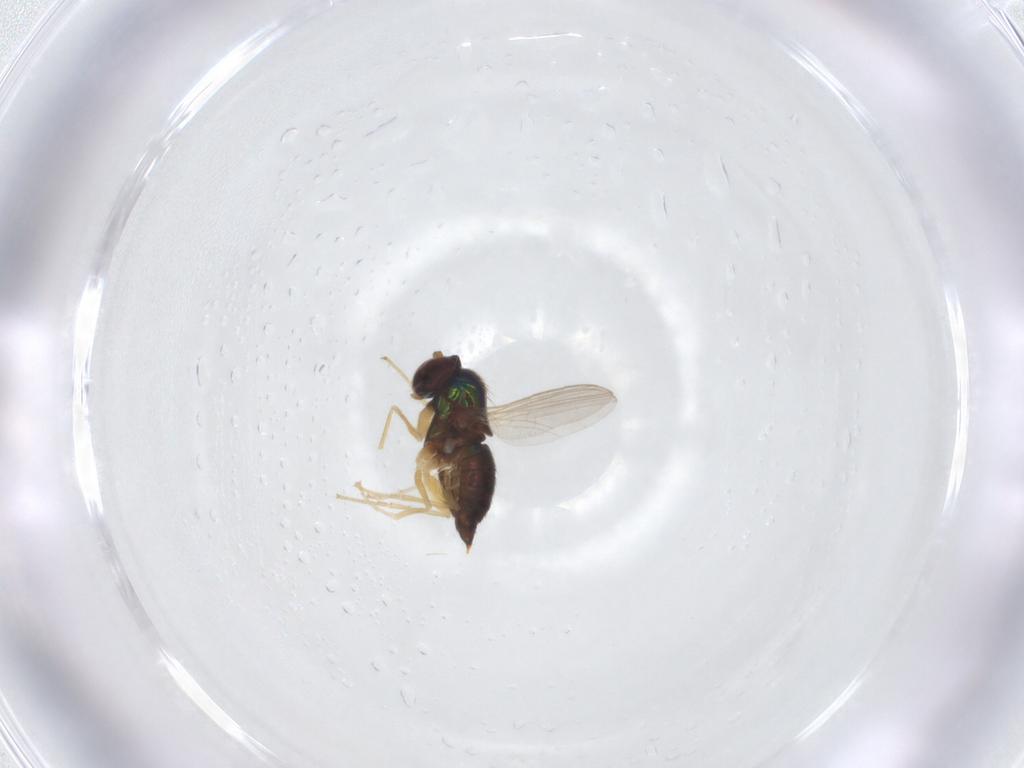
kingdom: Animalia
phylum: Arthropoda
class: Insecta
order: Diptera
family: Dolichopodidae
